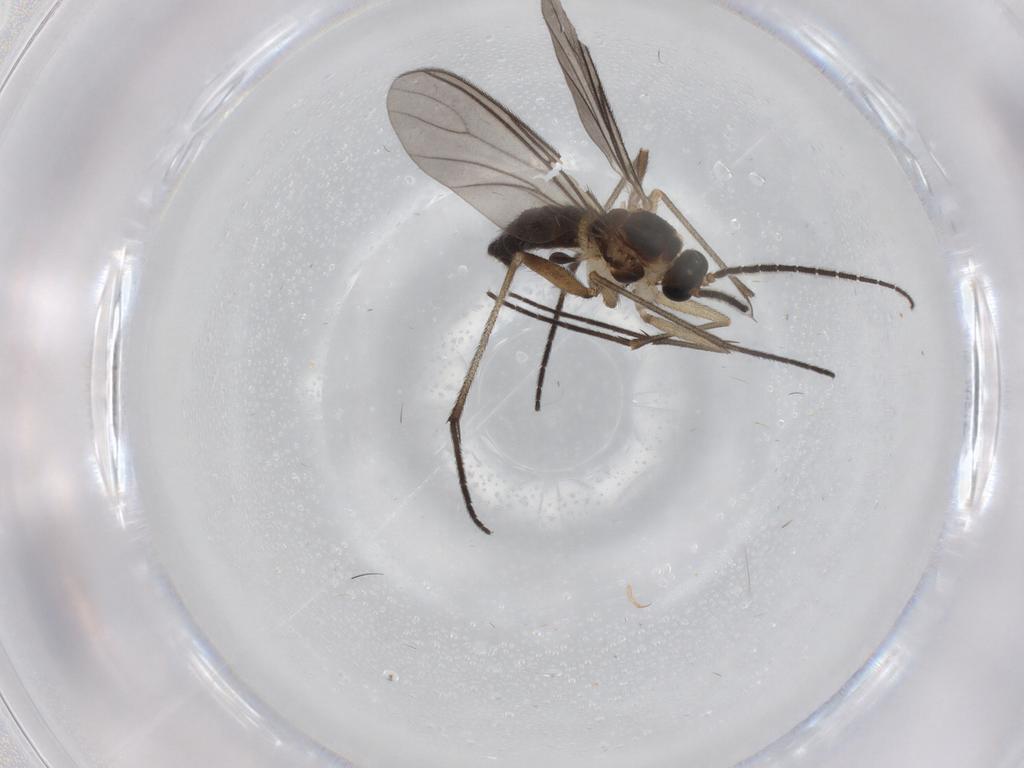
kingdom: Animalia
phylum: Arthropoda
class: Insecta
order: Diptera
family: Sciaridae
